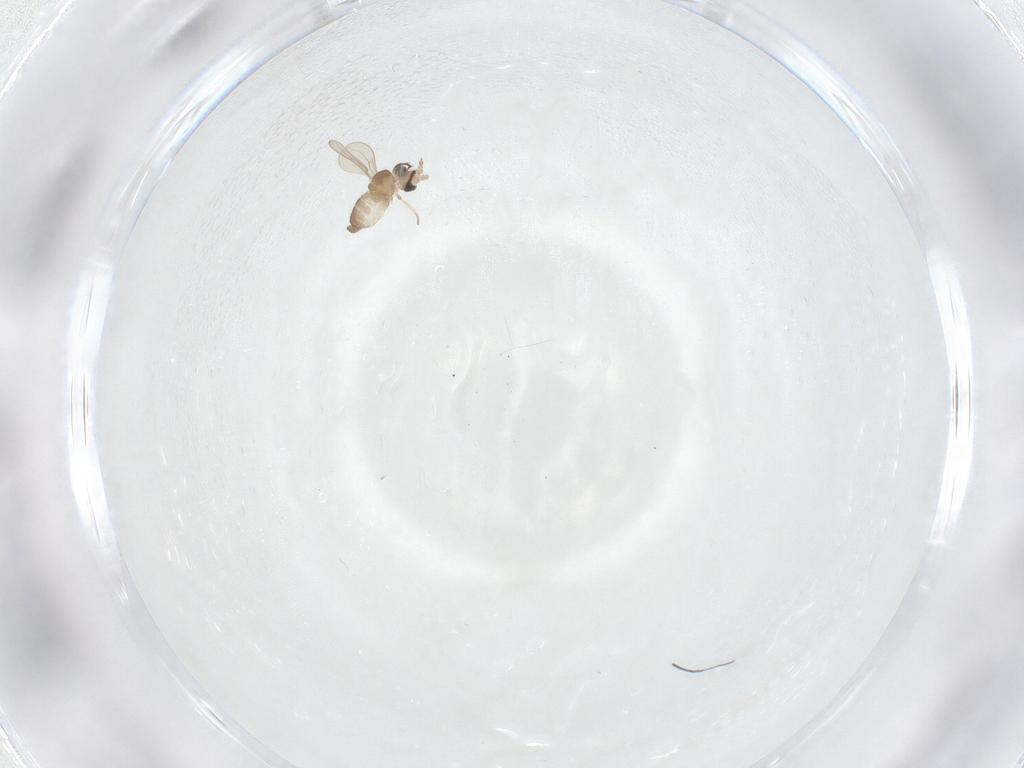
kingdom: Animalia
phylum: Arthropoda
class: Insecta
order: Diptera
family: Cecidomyiidae
